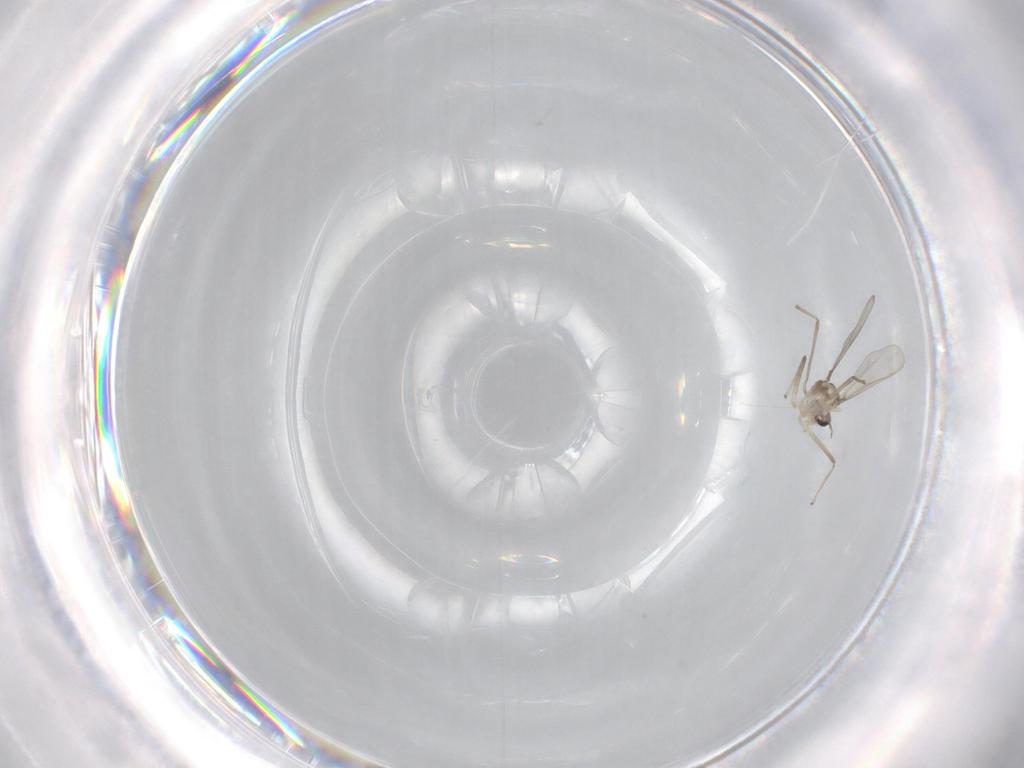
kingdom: Animalia
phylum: Arthropoda
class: Insecta
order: Diptera
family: Chironomidae
